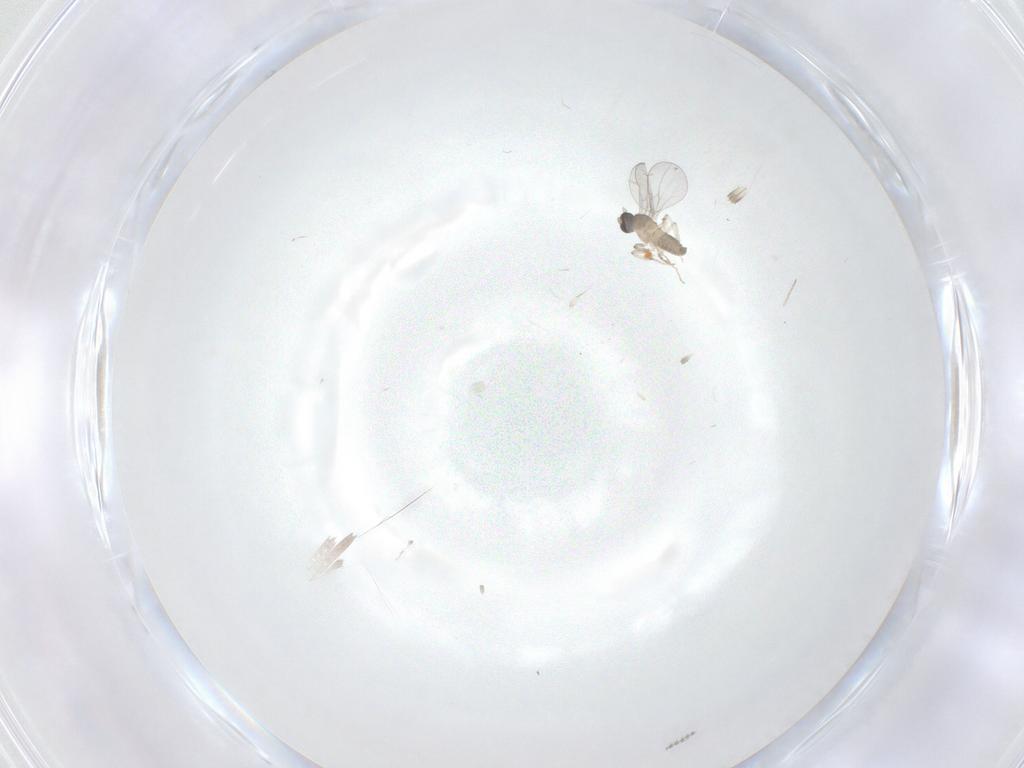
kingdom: Animalia
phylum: Arthropoda
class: Insecta
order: Diptera
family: Cecidomyiidae
